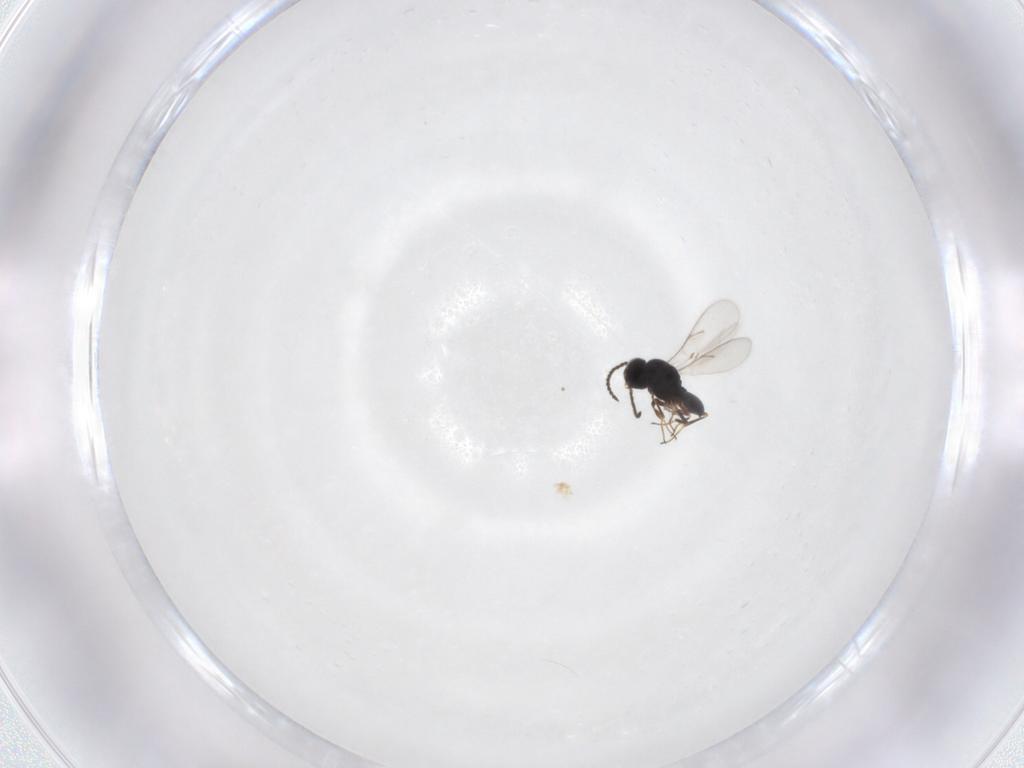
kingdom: Animalia
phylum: Arthropoda
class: Insecta
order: Hymenoptera
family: Scelionidae
